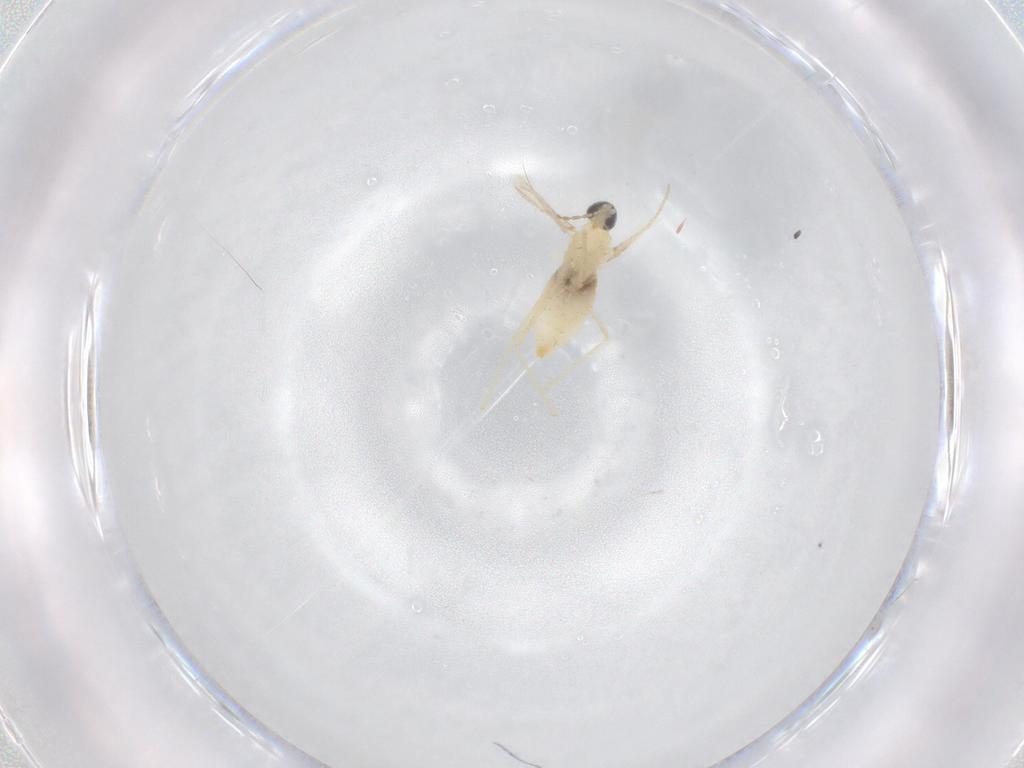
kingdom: Animalia
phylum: Arthropoda
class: Insecta
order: Diptera
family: Cecidomyiidae
